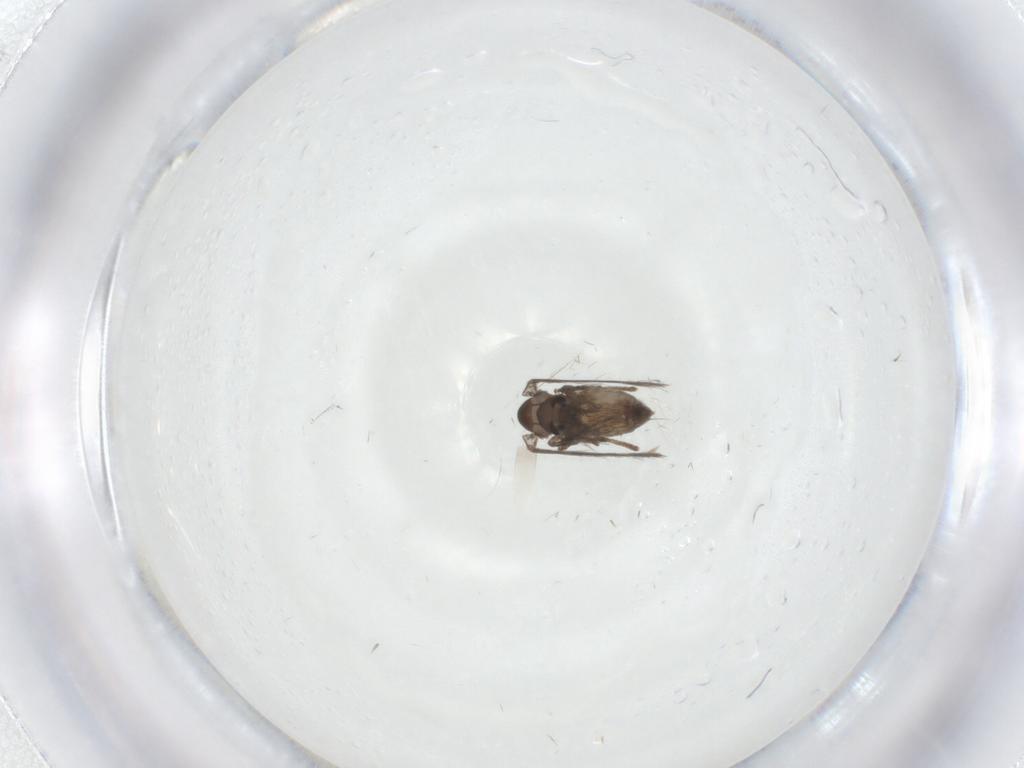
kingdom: Animalia
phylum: Arthropoda
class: Insecta
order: Diptera
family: Psychodidae
